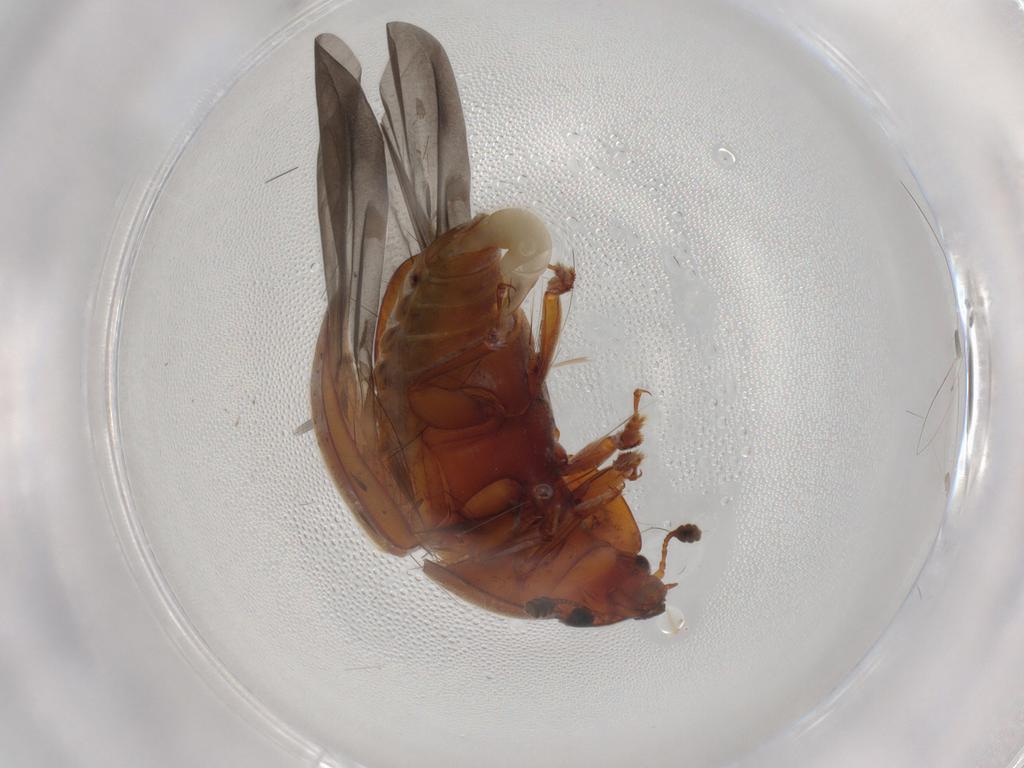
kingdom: Animalia
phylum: Arthropoda
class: Insecta
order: Coleoptera
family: Nitidulidae
